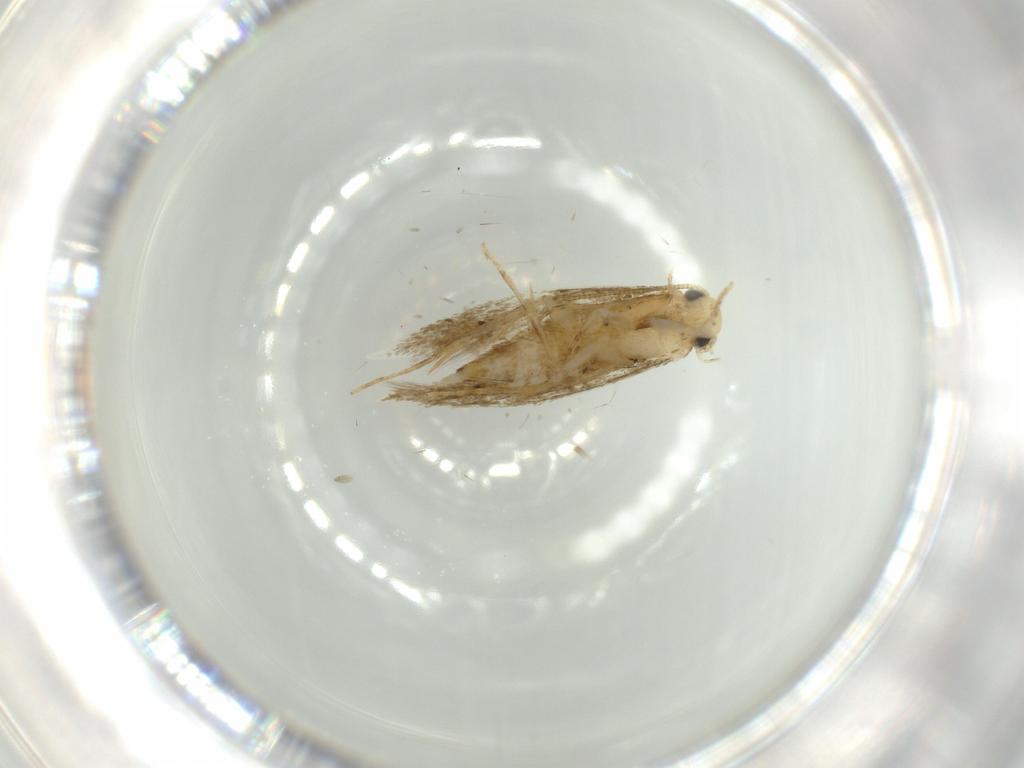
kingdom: Animalia
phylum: Arthropoda
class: Insecta
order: Lepidoptera
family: Tineidae
